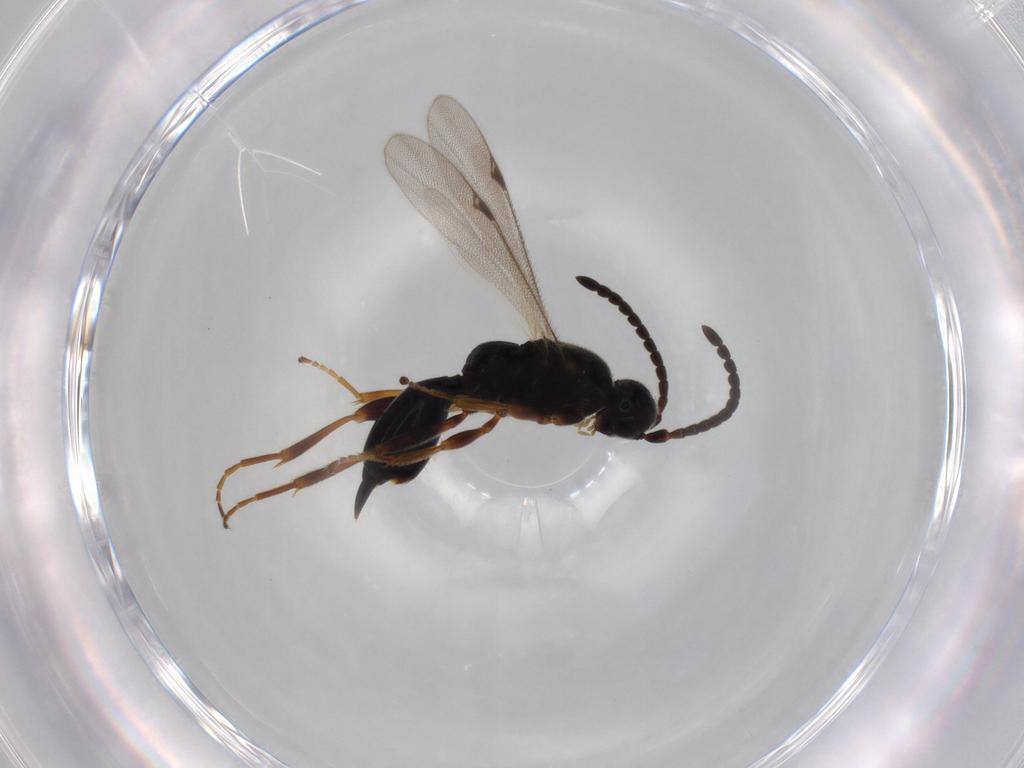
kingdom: Animalia
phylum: Arthropoda
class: Insecta
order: Hymenoptera
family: Proctotrupidae
